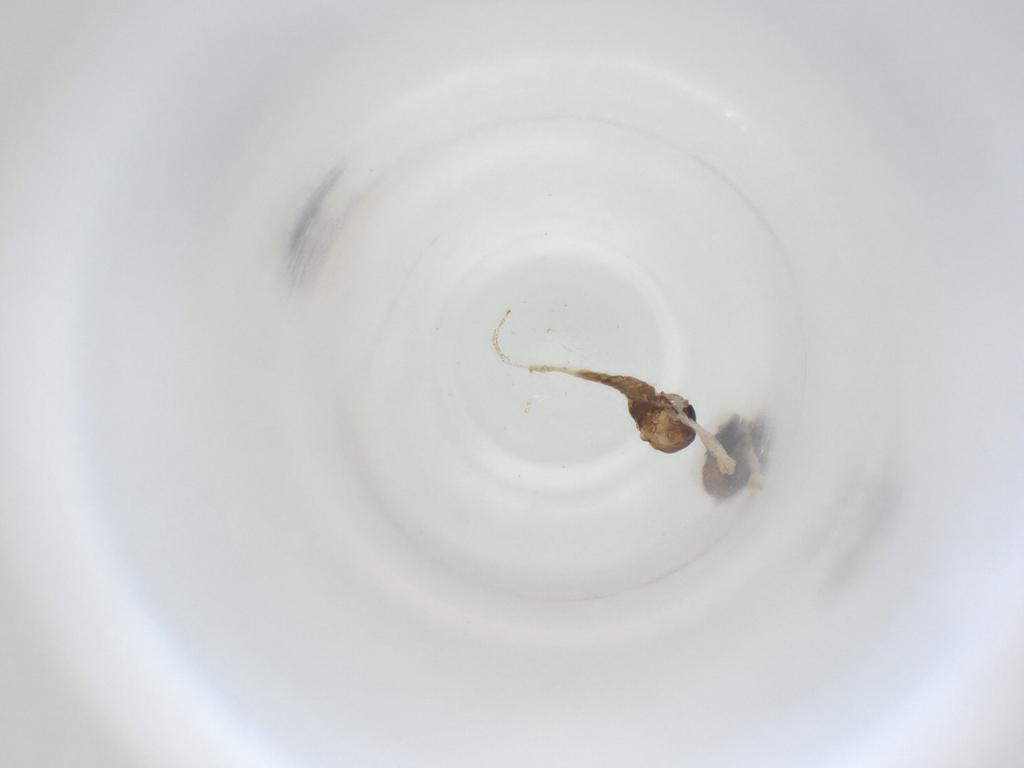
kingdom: Animalia
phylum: Arthropoda
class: Insecta
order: Diptera
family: Cecidomyiidae
